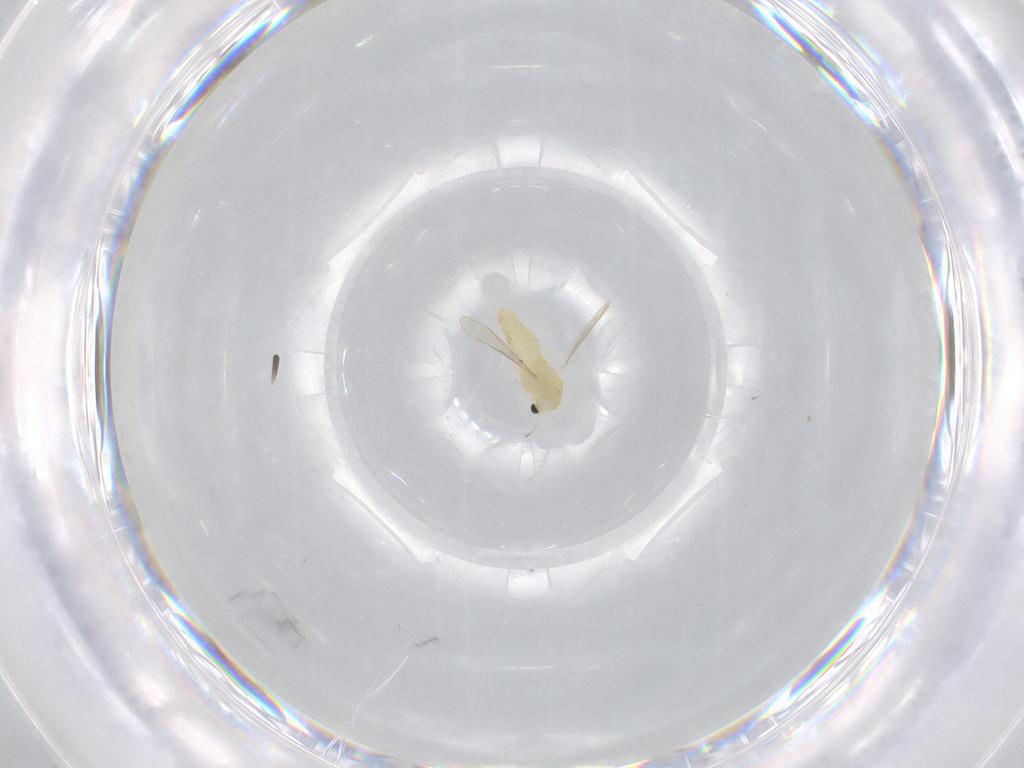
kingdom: Animalia
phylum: Arthropoda
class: Insecta
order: Diptera
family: Chironomidae
